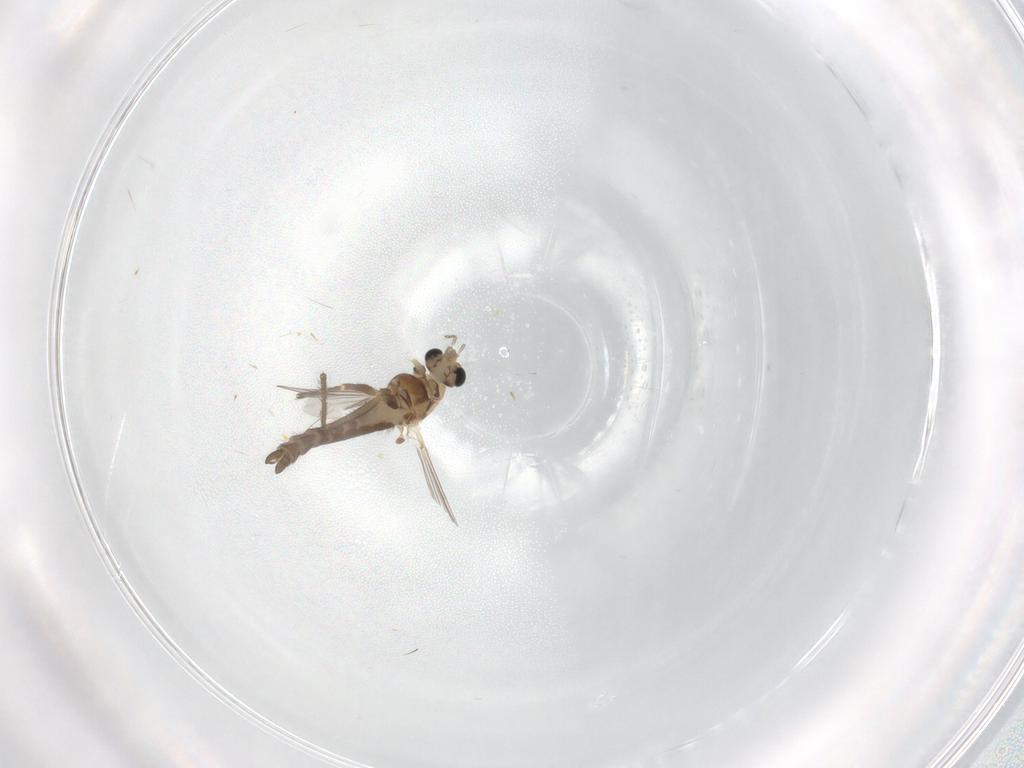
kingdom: Animalia
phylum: Arthropoda
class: Insecta
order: Diptera
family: Chironomidae
